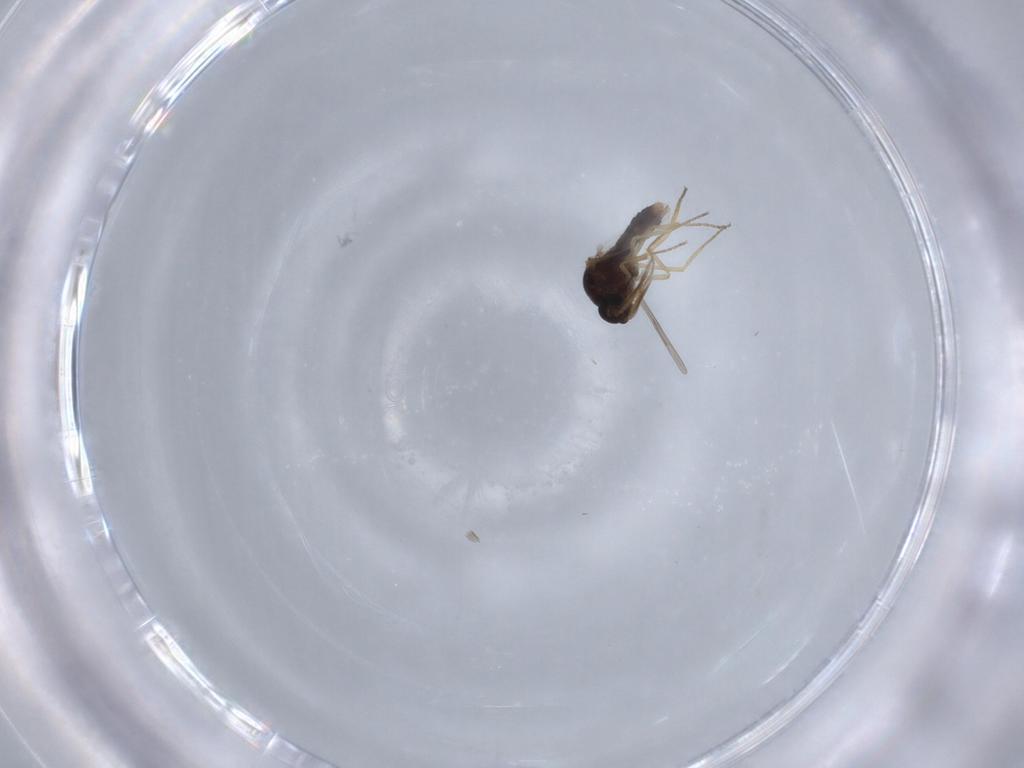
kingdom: Animalia
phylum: Arthropoda
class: Insecta
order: Diptera
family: Ceratopogonidae
